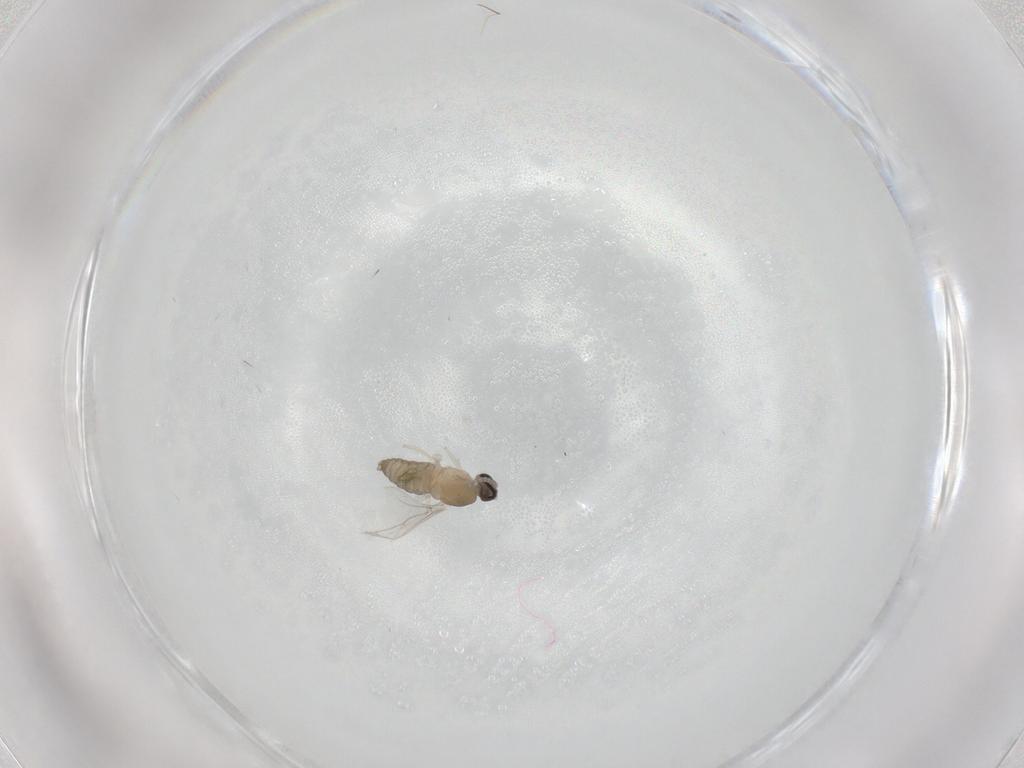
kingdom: Animalia
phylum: Arthropoda
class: Insecta
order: Diptera
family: Cecidomyiidae
